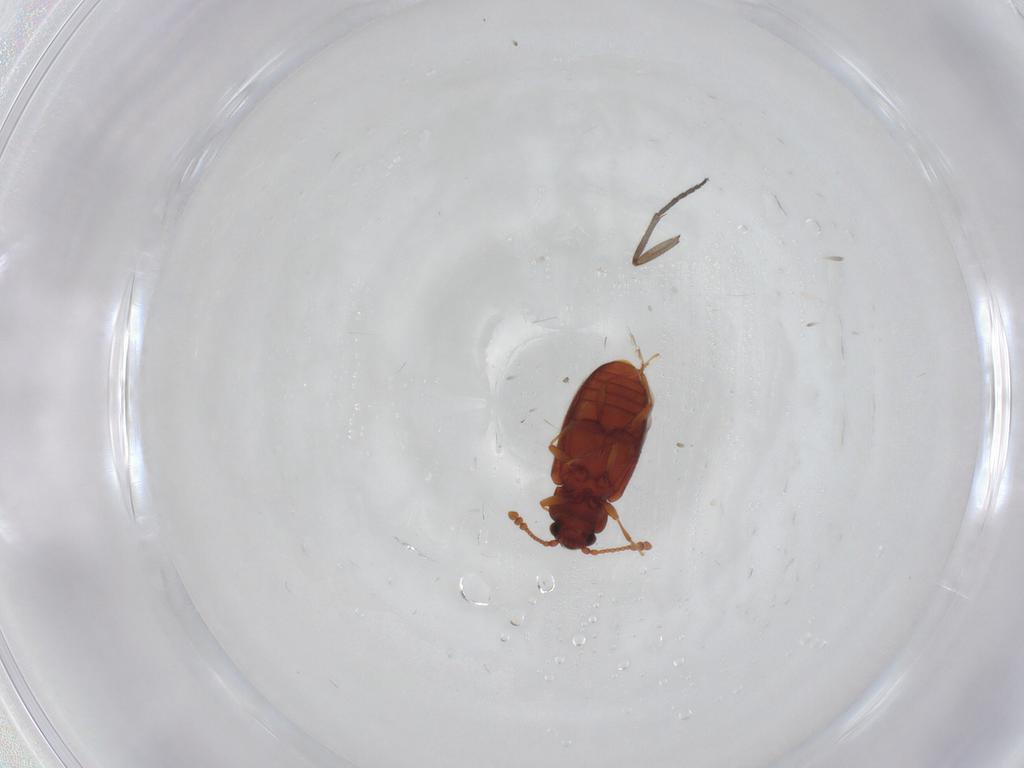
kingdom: Animalia
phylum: Arthropoda
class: Insecta
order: Coleoptera
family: Cryptophagidae
